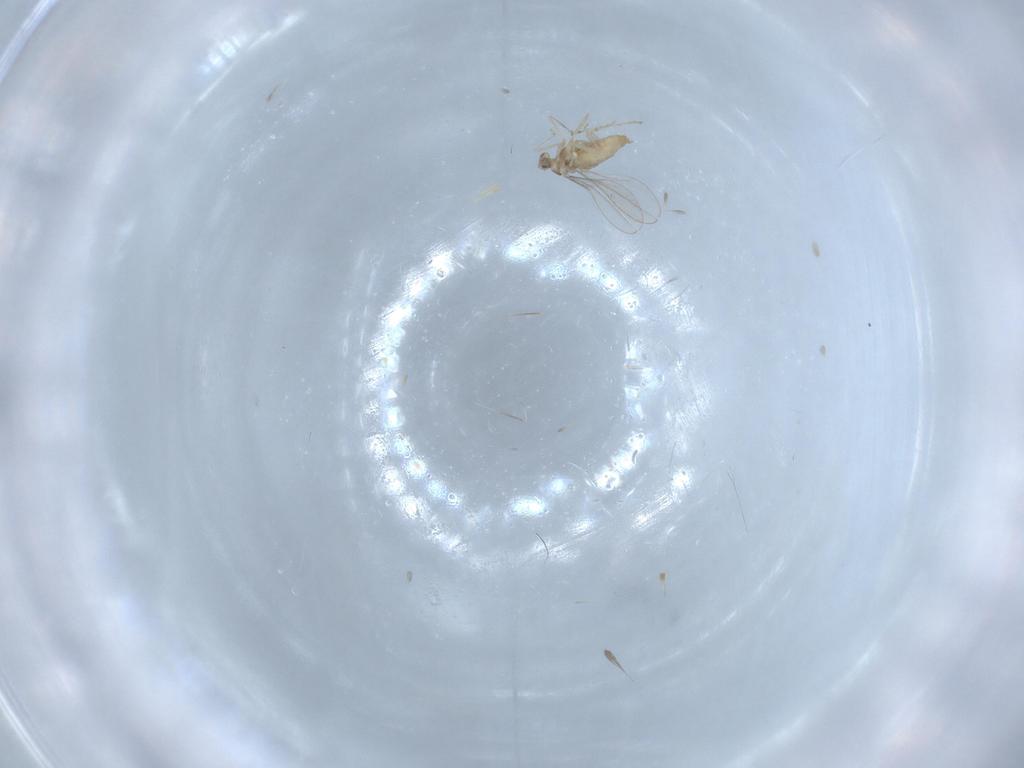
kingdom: Animalia
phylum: Arthropoda
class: Insecta
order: Diptera
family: Cecidomyiidae
